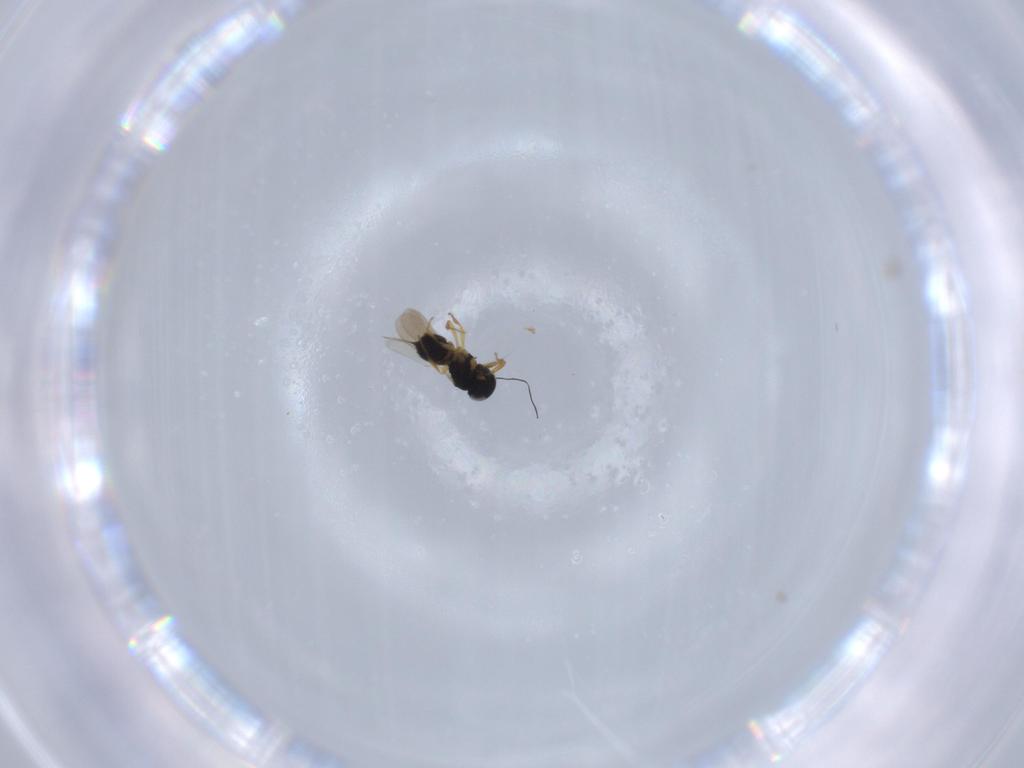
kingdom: Animalia
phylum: Arthropoda
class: Insecta
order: Hymenoptera
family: Scelionidae
